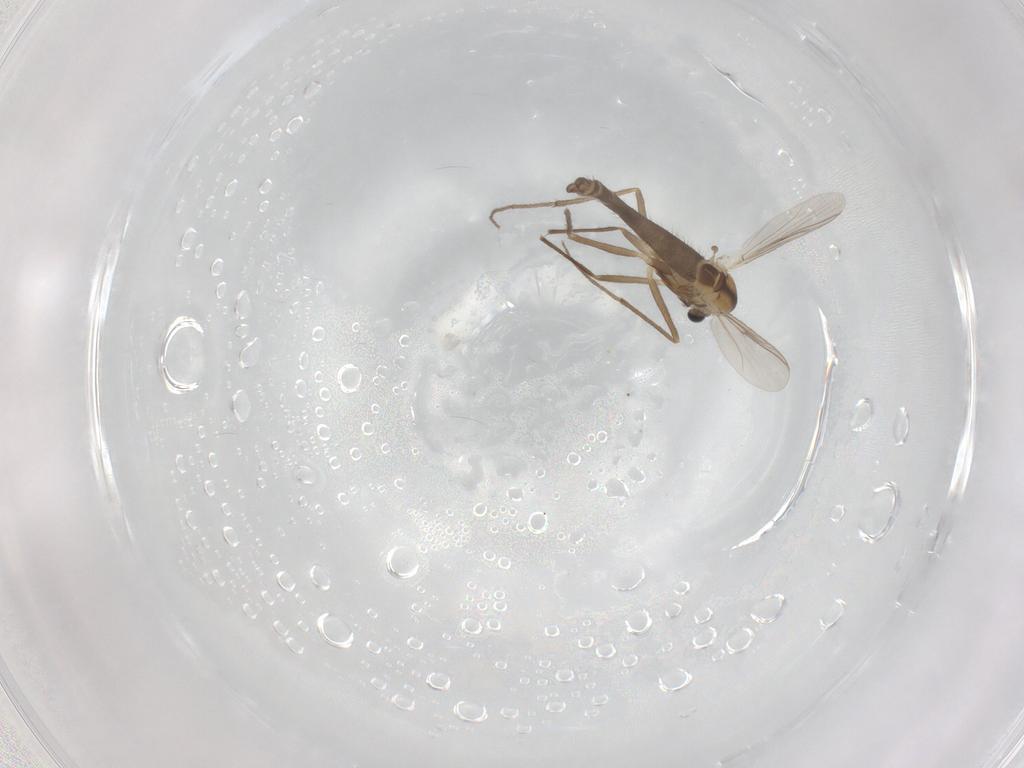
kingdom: Animalia
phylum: Arthropoda
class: Insecta
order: Diptera
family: Chironomidae
